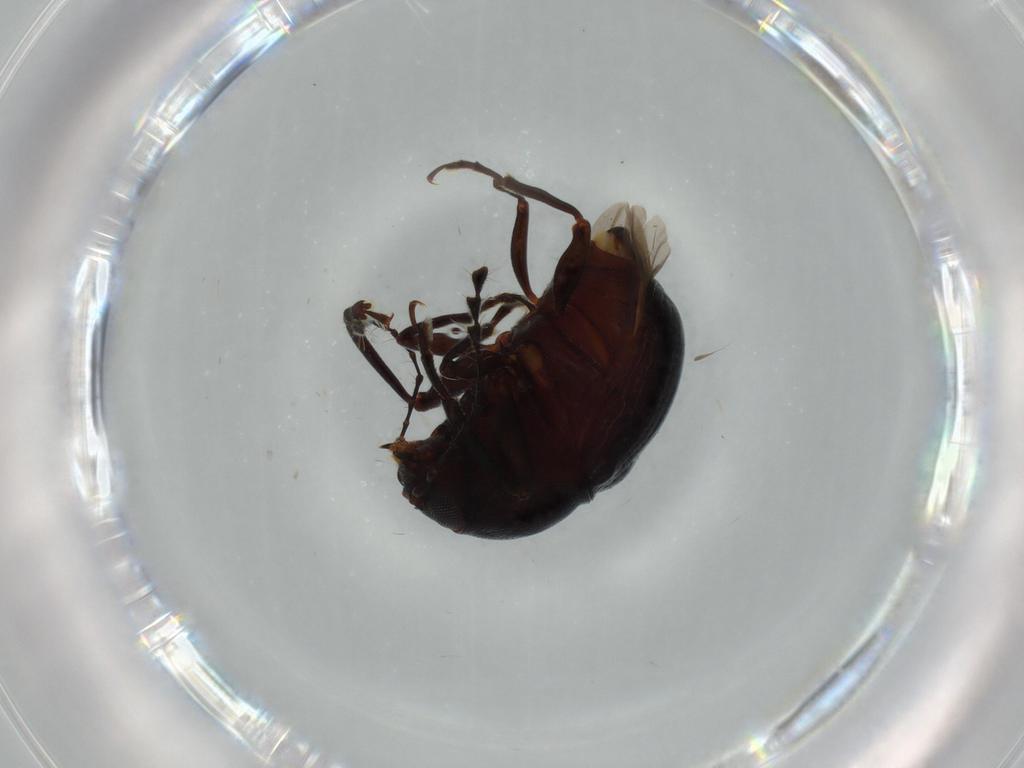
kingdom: Animalia
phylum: Arthropoda
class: Insecta
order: Coleoptera
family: Anthribidae
